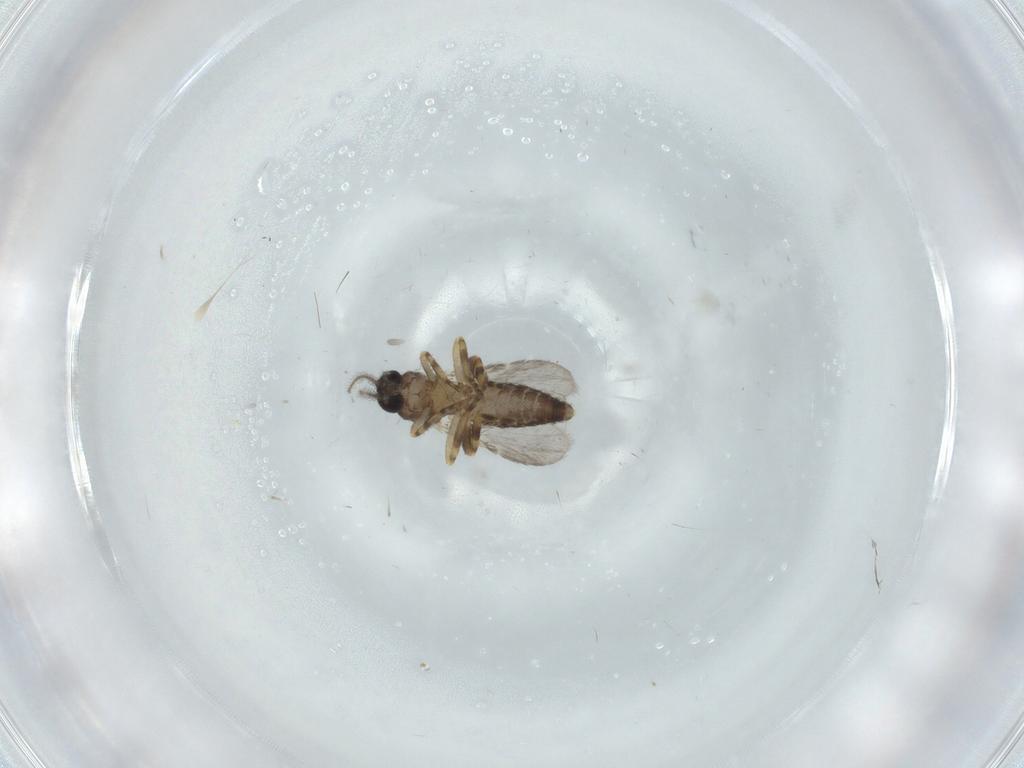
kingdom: Animalia
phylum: Arthropoda
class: Insecta
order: Diptera
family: Ceratopogonidae
